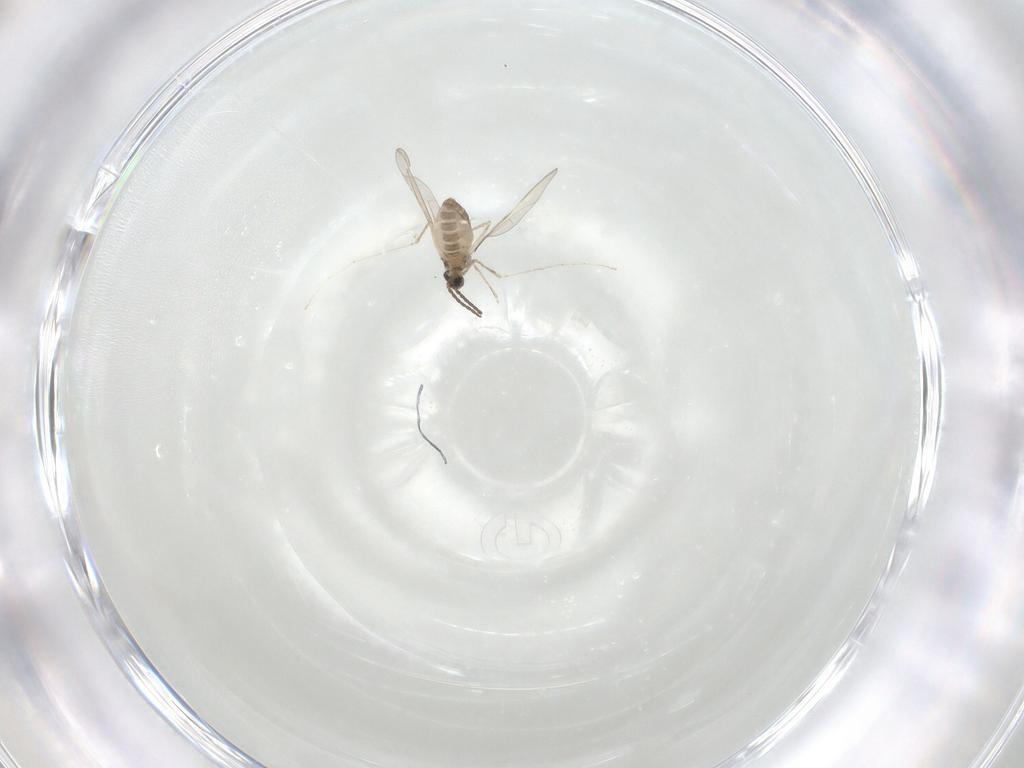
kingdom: Animalia
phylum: Arthropoda
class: Insecta
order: Diptera
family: Cecidomyiidae
